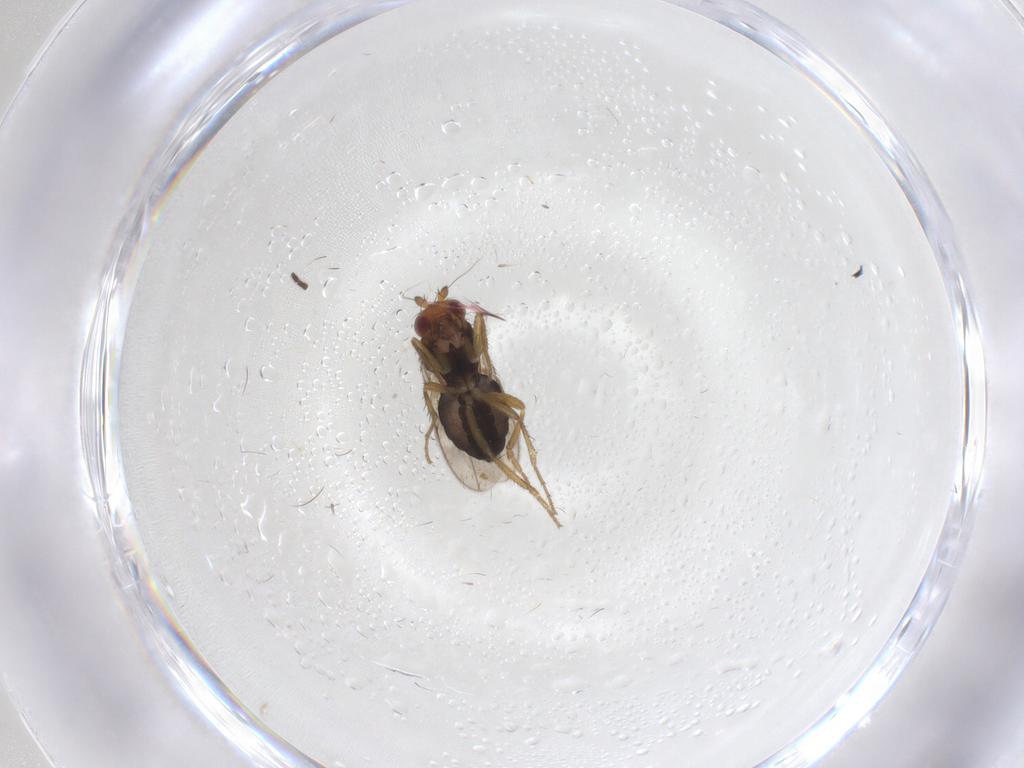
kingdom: Animalia
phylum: Arthropoda
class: Insecta
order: Diptera
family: Sphaeroceridae
